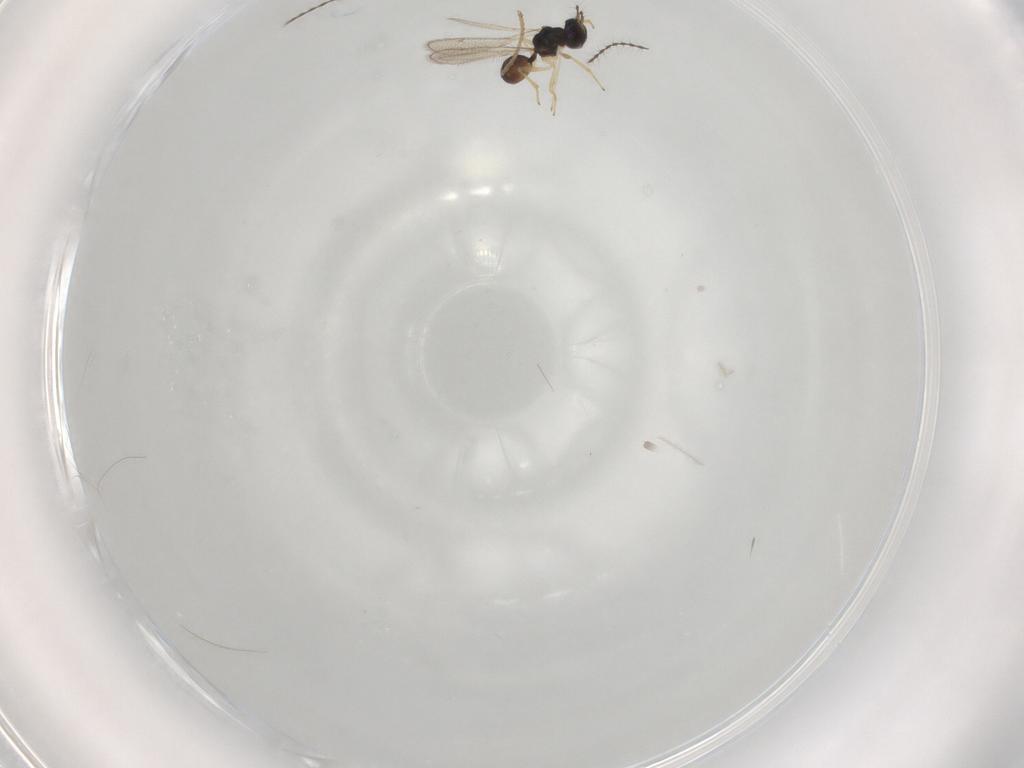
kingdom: Animalia
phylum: Arthropoda
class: Insecta
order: Hymenoptera
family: Diparidae
